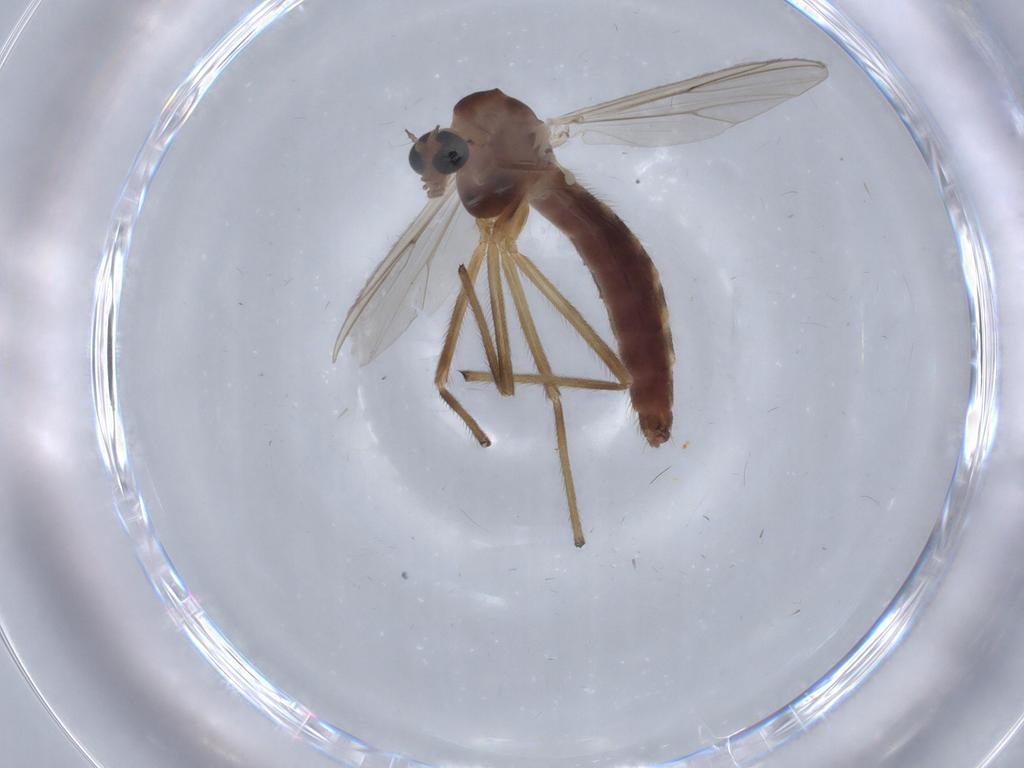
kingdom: Animalia
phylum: Arthropoda
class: Insecta
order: Diptera
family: Cecidomyiidae
